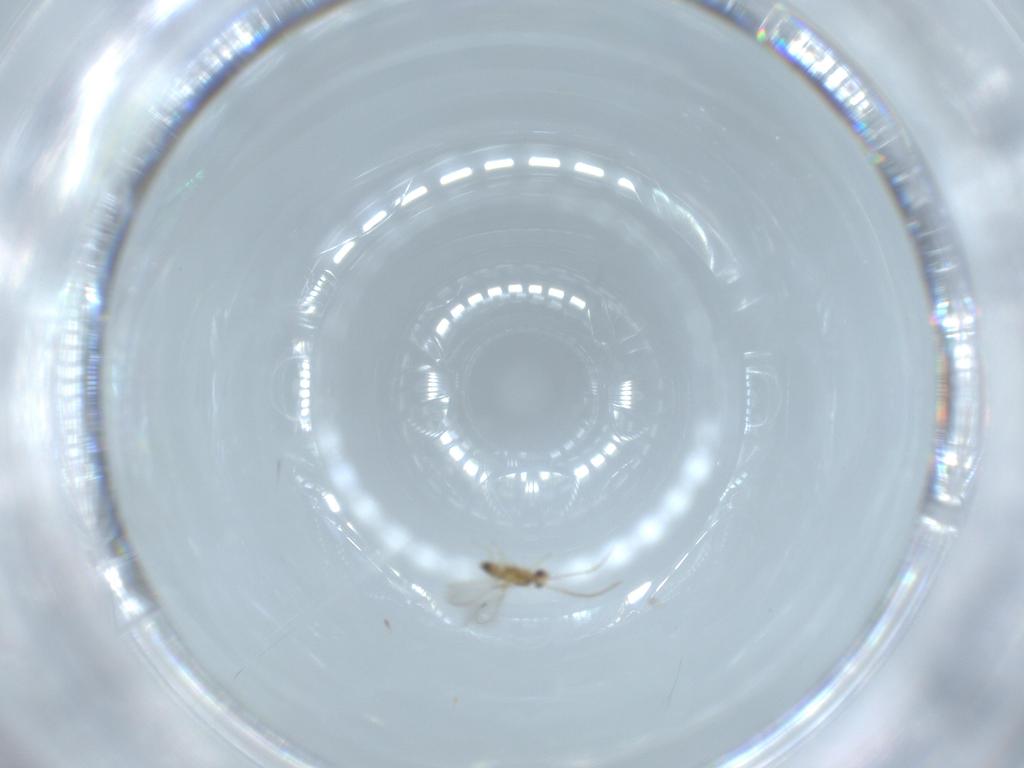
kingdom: Animalia
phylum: Arthropoda
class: Insecta
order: Hymenoptera
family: Mymaridae
